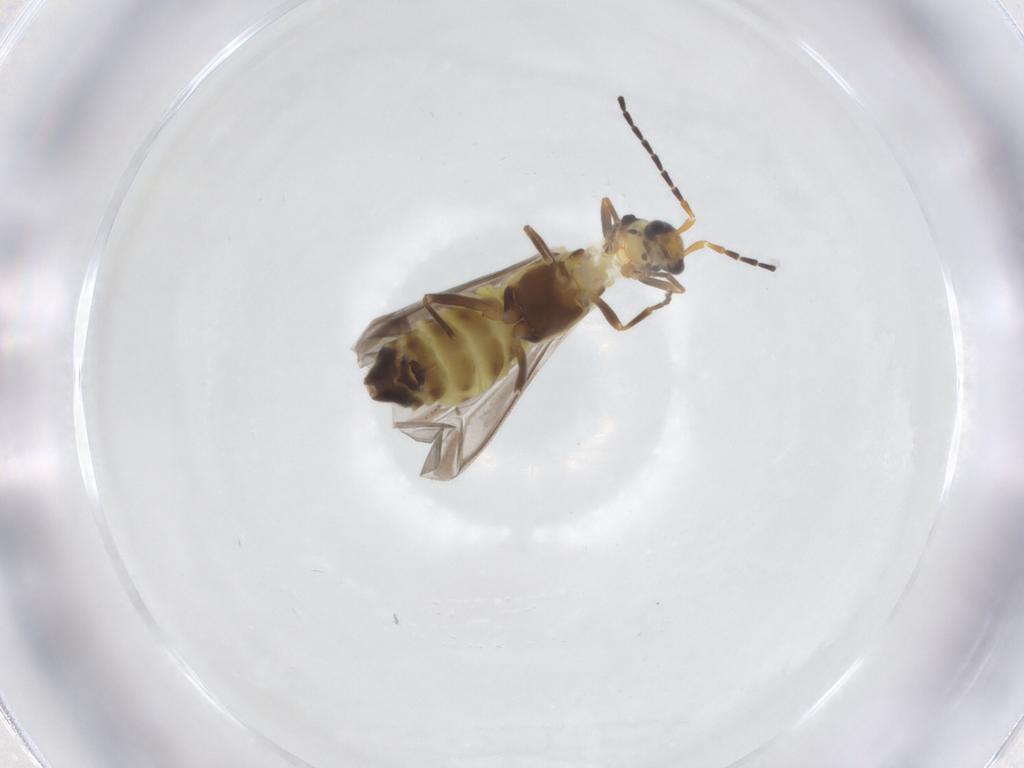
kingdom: Animalia
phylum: Arthropoda
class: Insecta
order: Coleoptera
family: Cantharidae
